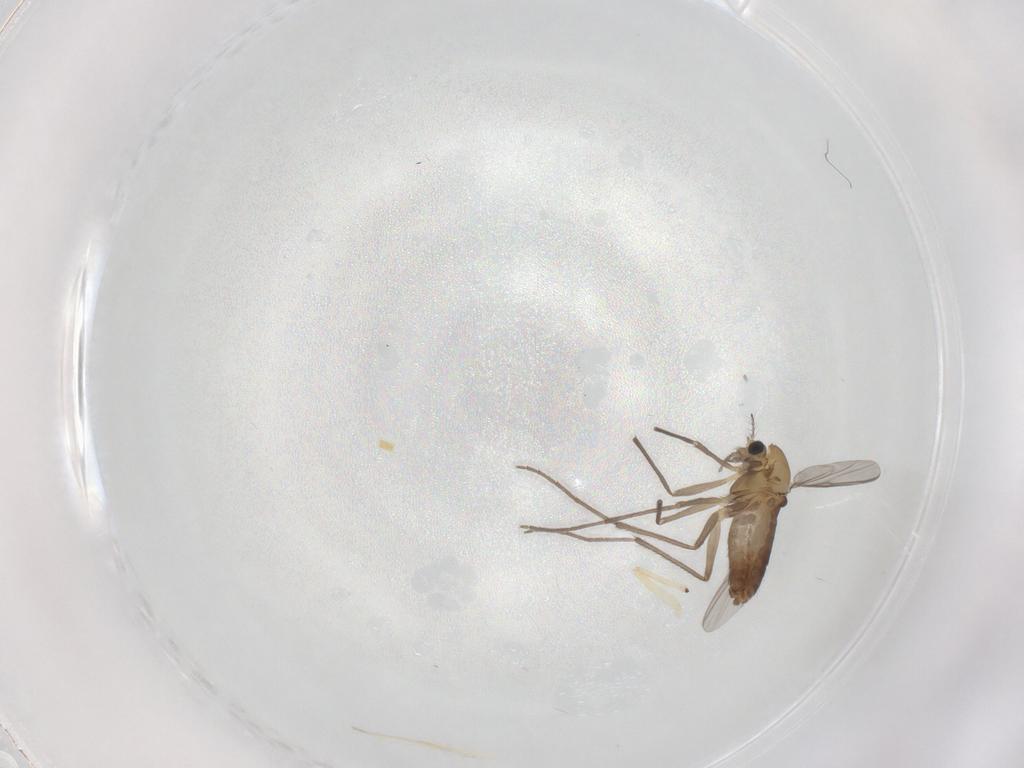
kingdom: Animalia
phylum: Arthropoda
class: Insecta
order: Diptera
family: Chironomidae
